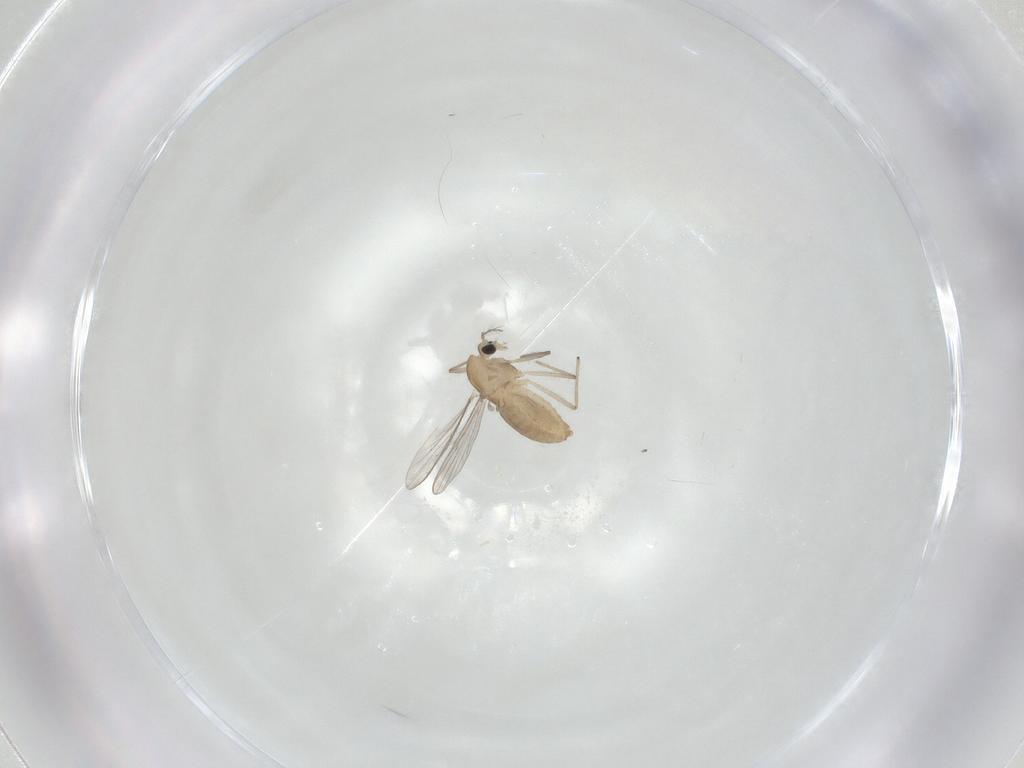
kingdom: Animalia
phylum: Arthropoda
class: Insecta
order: Diptera
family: Chironomidae
